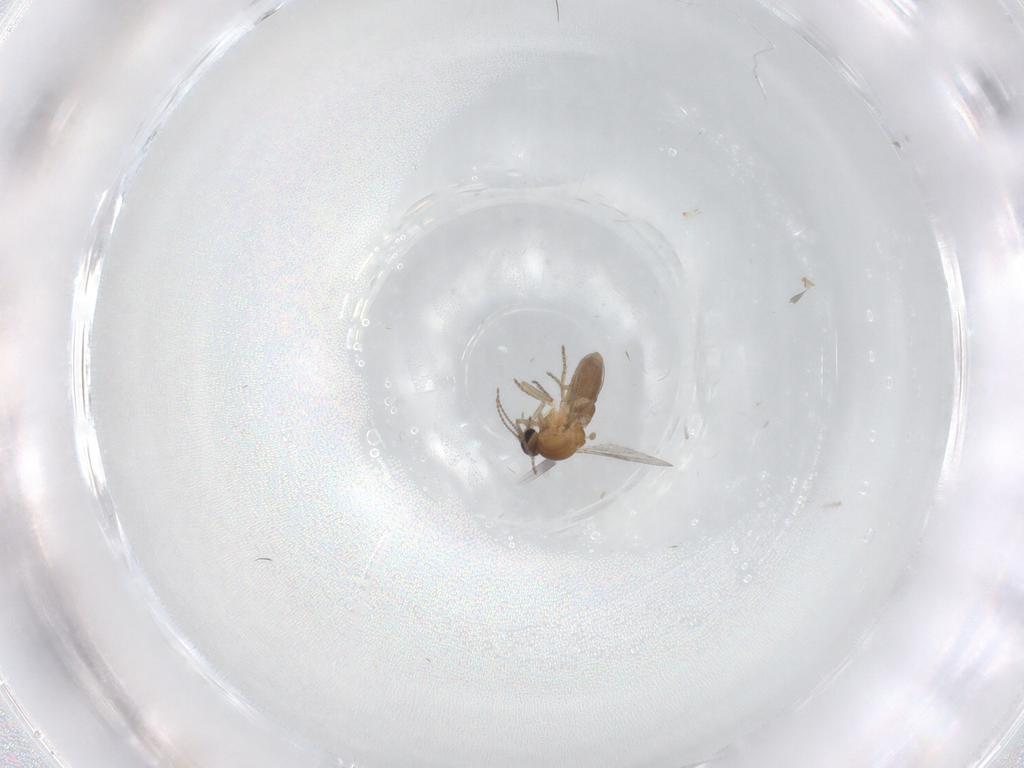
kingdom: Animalia
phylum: Arthropoda
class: Insecta
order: Diptera
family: Ceratopogonidae
